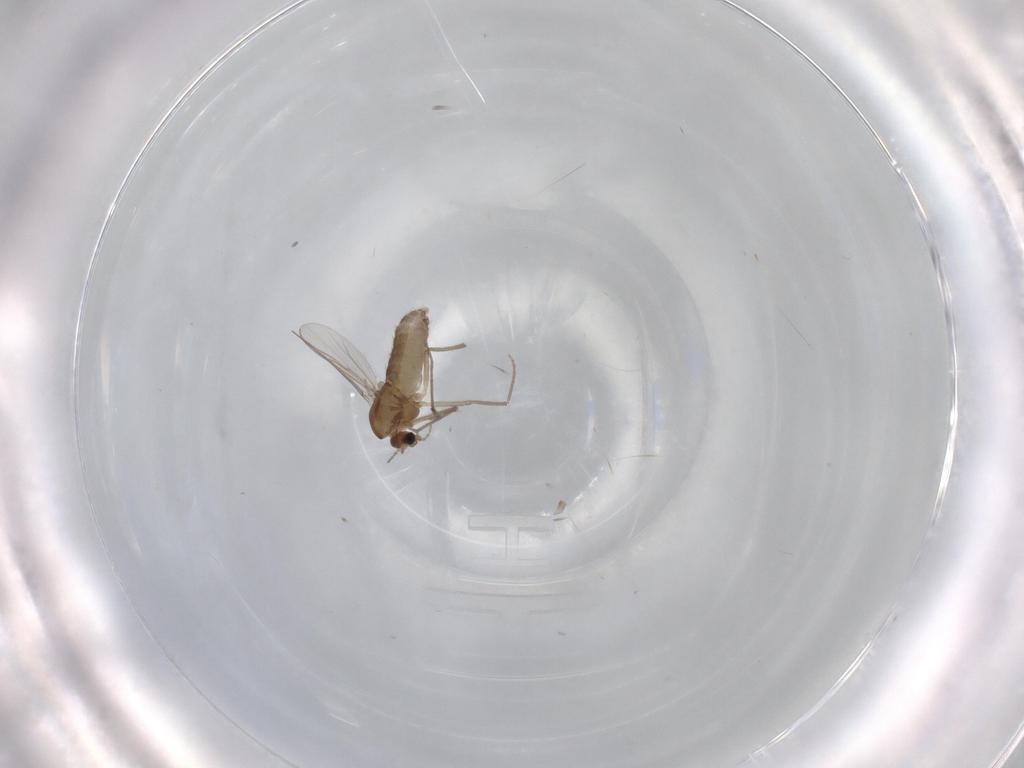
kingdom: Animalia
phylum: Arthropoda
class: Insecta
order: Diptera
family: Chironomidae
